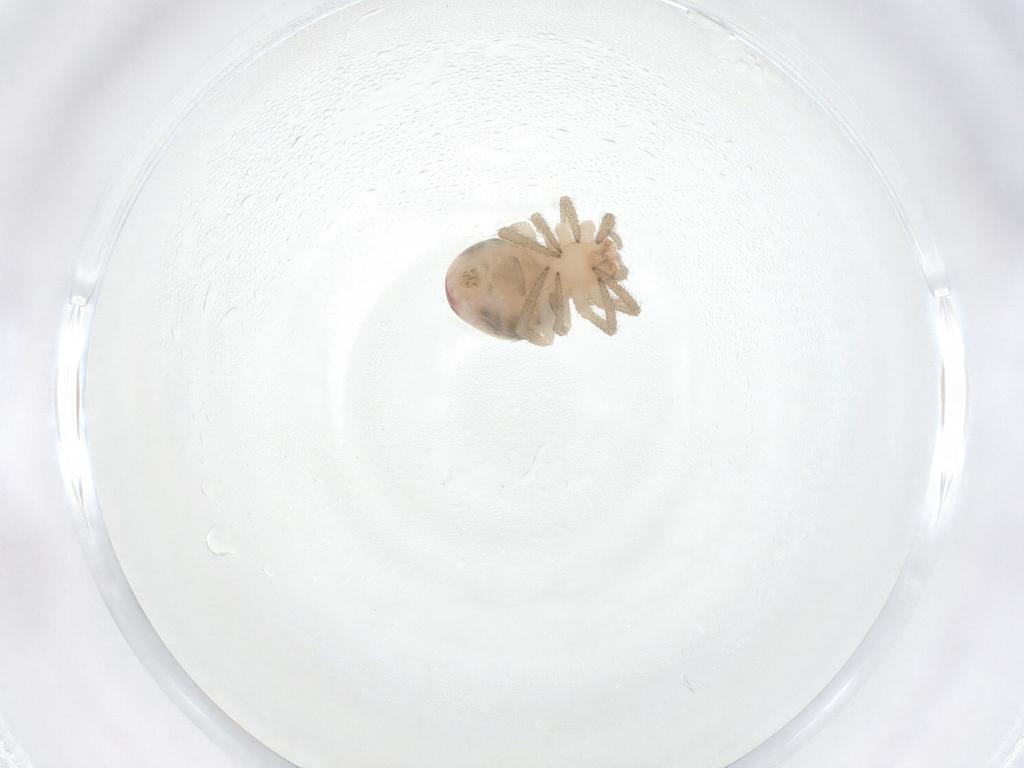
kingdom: Animalia
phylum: Arthropoda
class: Arachnida
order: Araneae
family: Theridiidae
